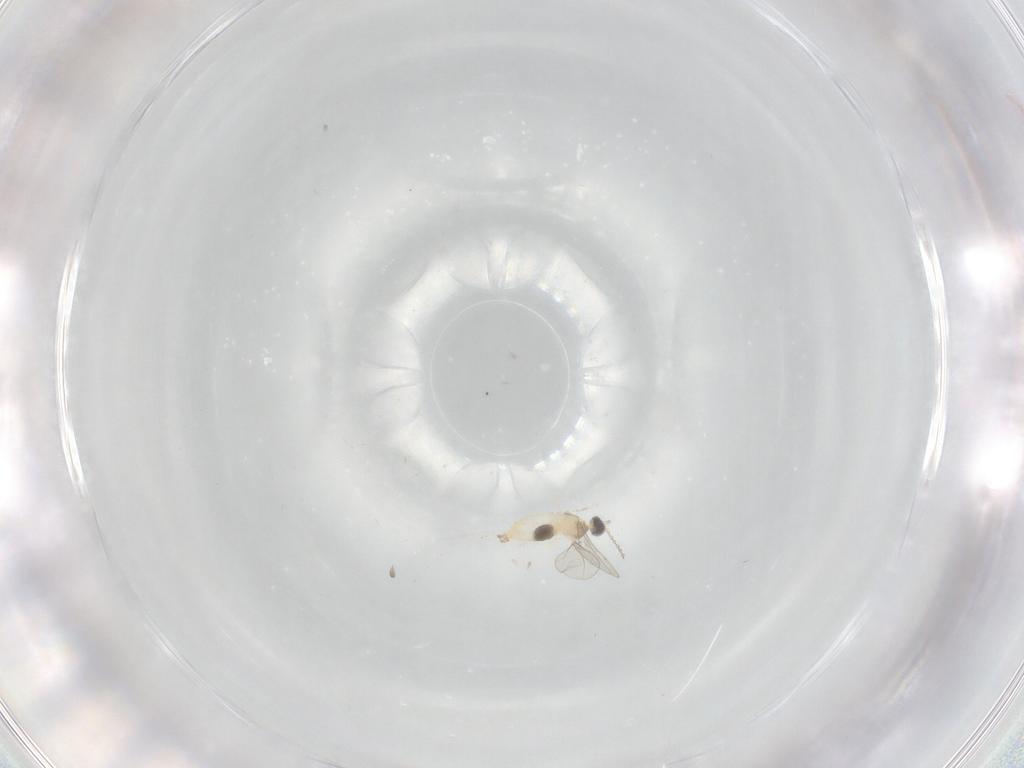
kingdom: Animalia
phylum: Arthropoda
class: Insecta
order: Diptera
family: Cecidomyiidae
